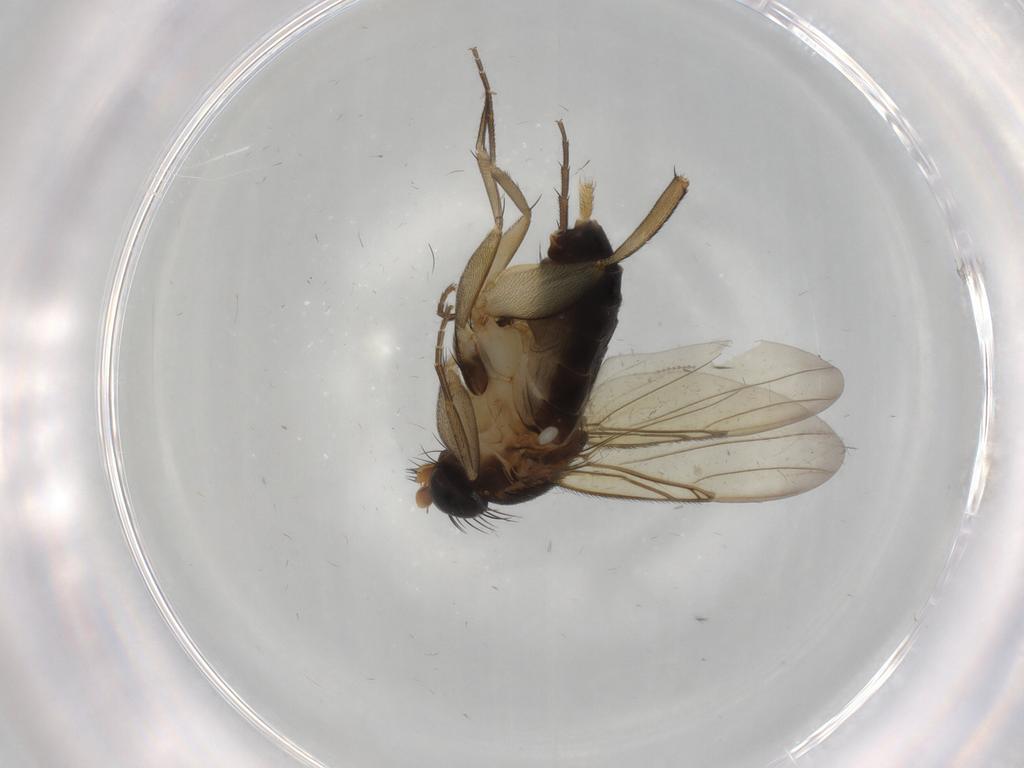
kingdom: Animalia
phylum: Arthropoda
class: Insecta
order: Diptera
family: Phoridae
